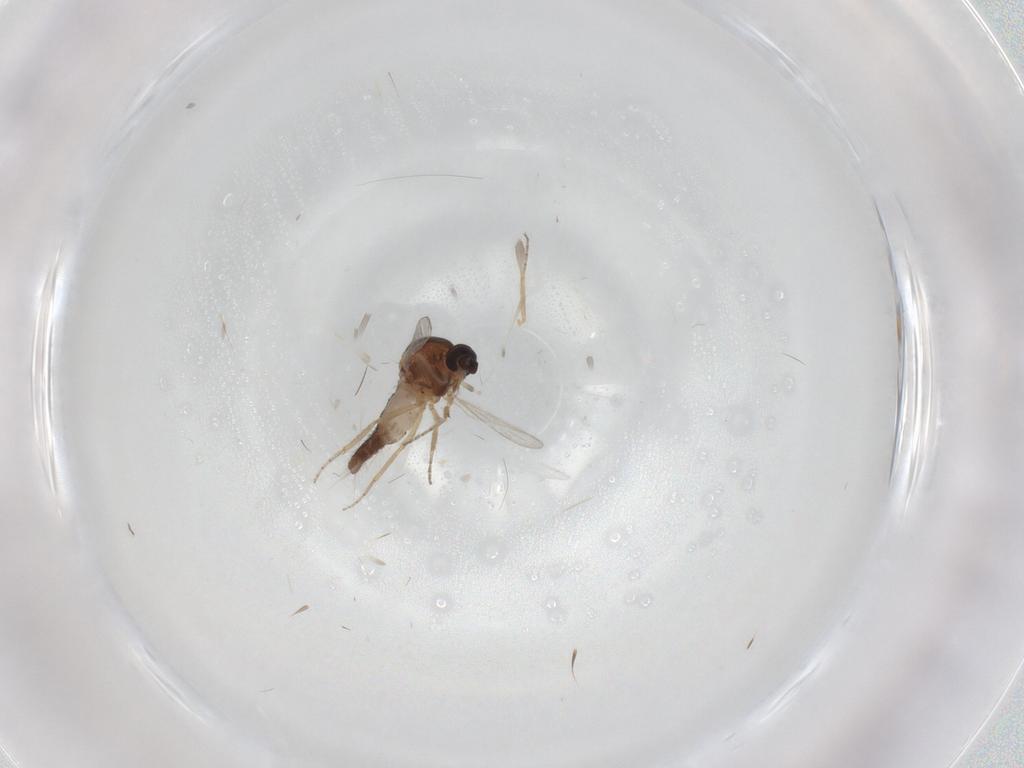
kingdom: Animalia
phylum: Arthropoda
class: Insecta
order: Diptera
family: Ceratopogonidae
